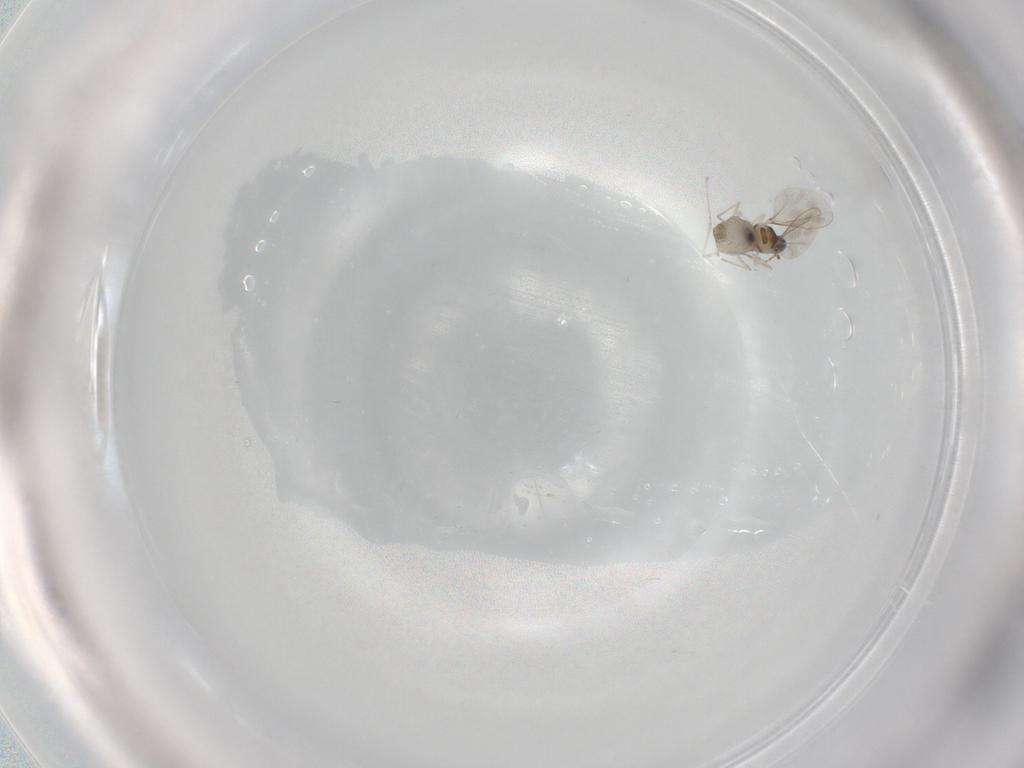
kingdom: Animalia
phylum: Arthropoda
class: Insecta
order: Diptera
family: Cecidomyiidae
